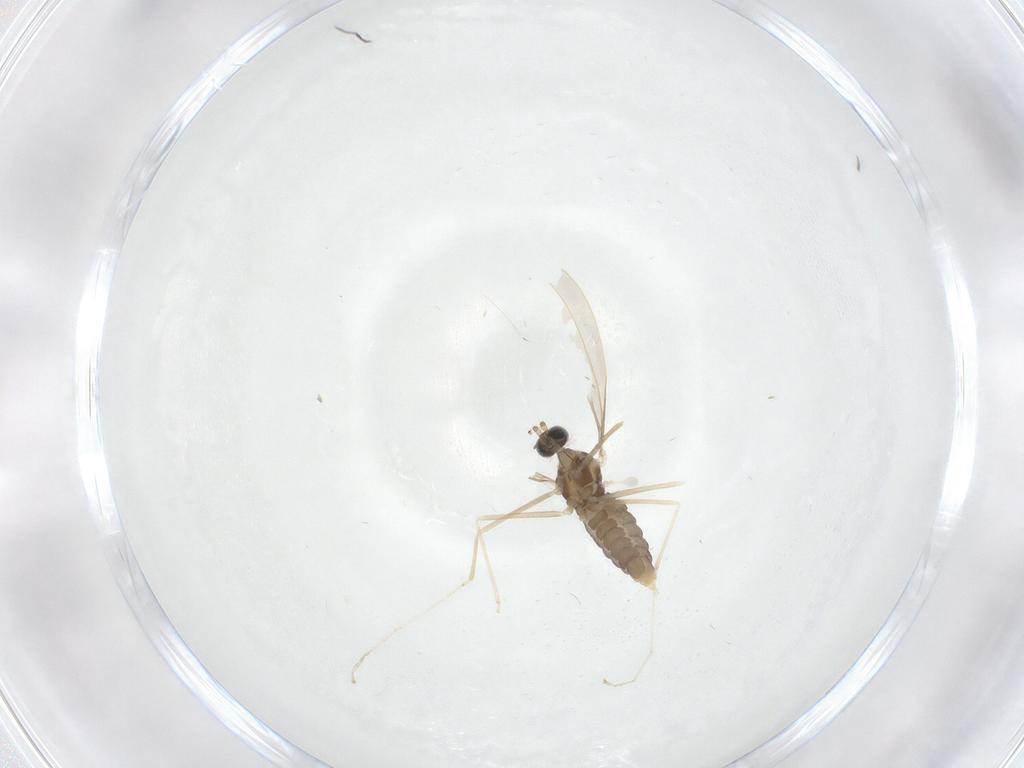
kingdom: Animalia
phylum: Arthropoda
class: Insecta
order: Diptera
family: Cecidomyiidae
